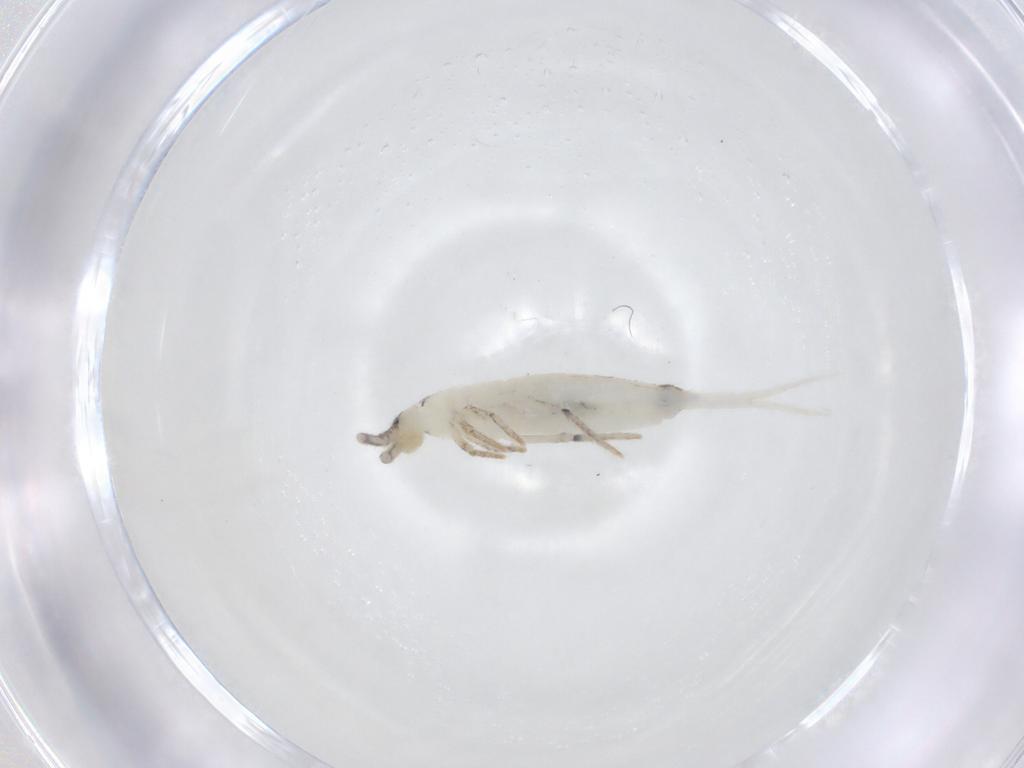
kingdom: Animalia
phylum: Arthropoda
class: Collembola
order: Entomobryomorpha
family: Entomobryidae
